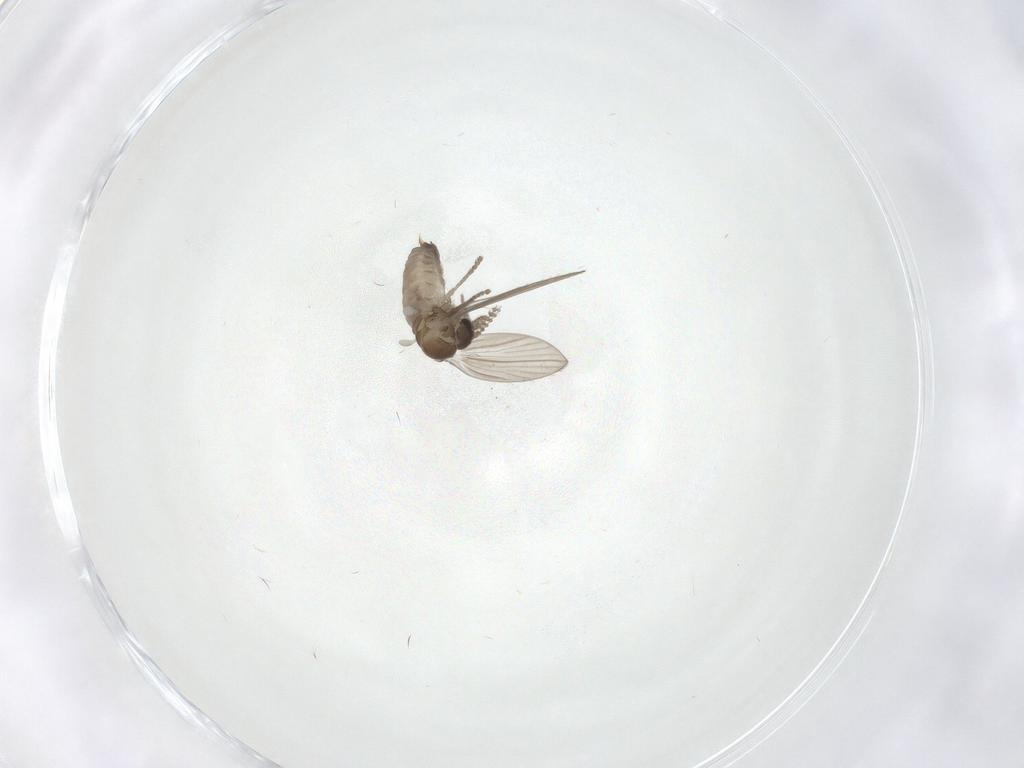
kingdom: Animalia
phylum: Arthropoda
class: Insecta
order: Diptera
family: Psychodidae
